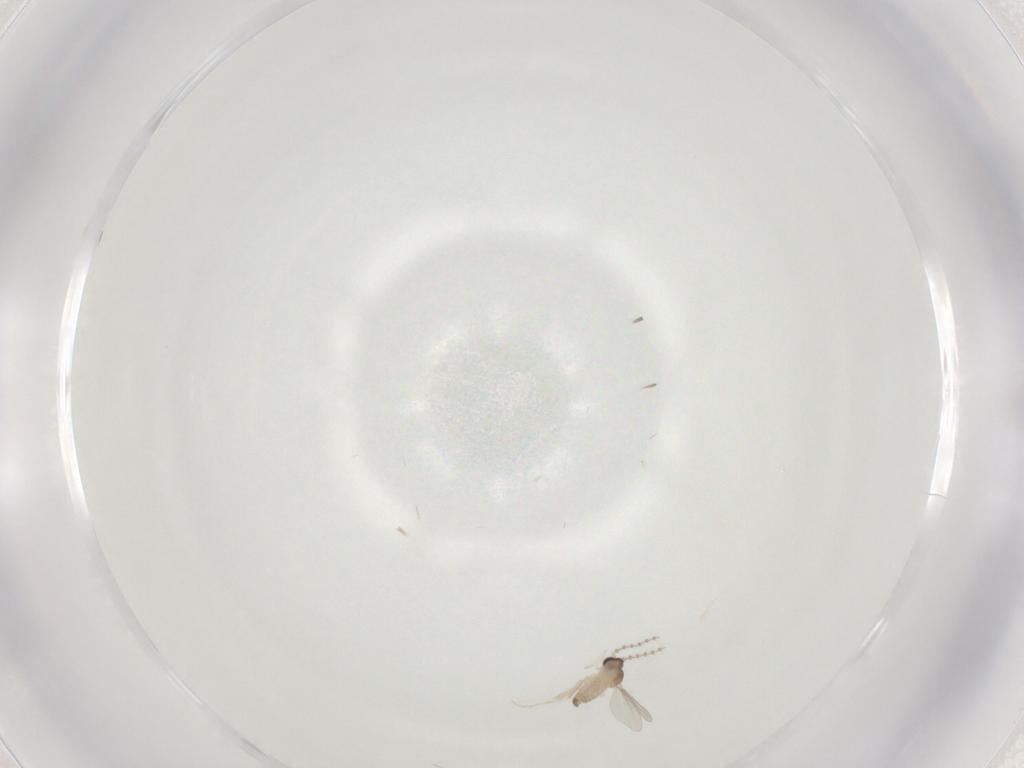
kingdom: Animalia
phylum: Arthropoda
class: Insecta
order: Diptera
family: Cecidomyiidae
